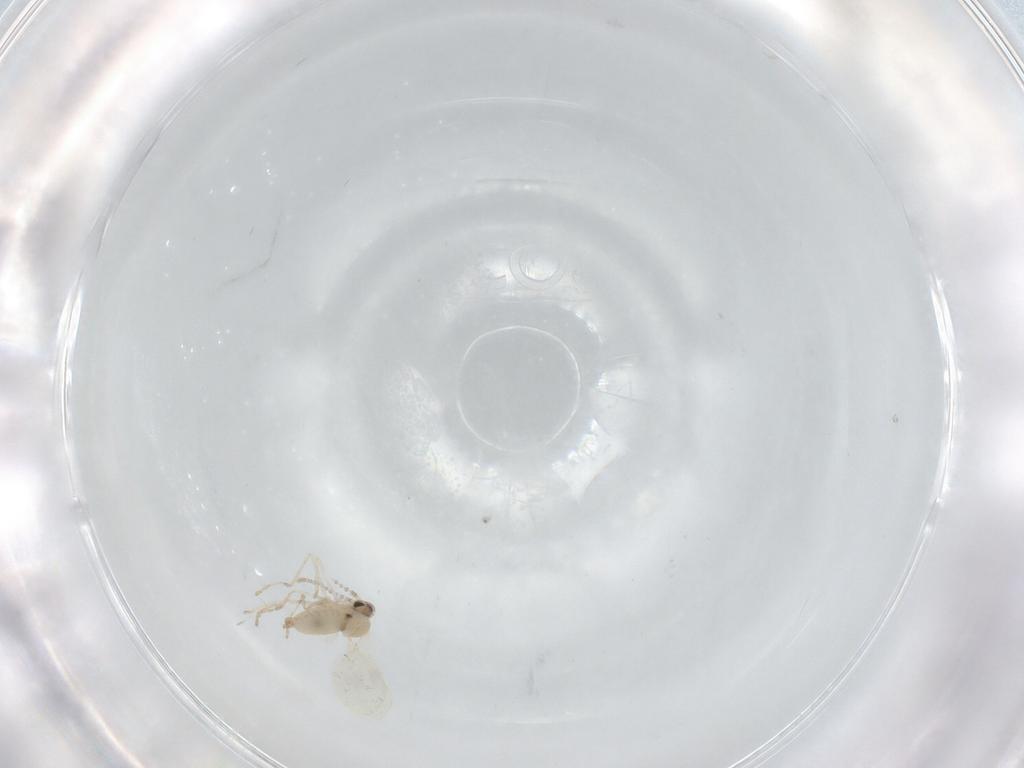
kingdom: Animalia
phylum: Arthropoda
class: Insecta
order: Diptera
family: Cecidomyiidae
